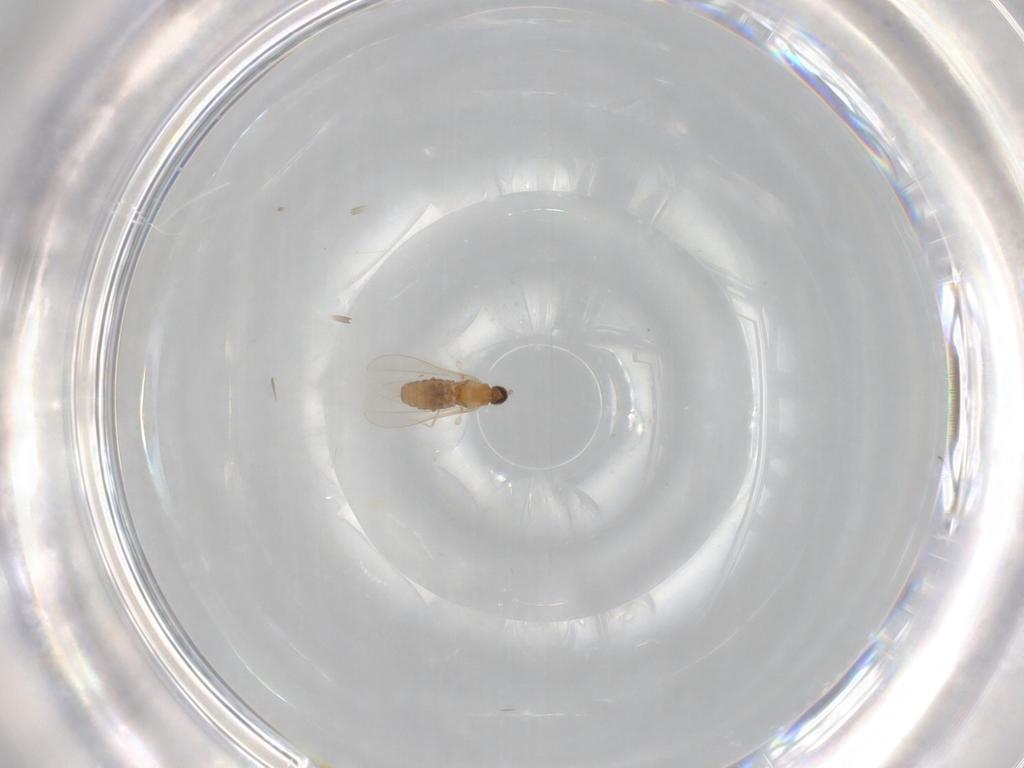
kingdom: Animalia
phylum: Arthropoda
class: Insecta
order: Diptera
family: Cecidomyiidae
